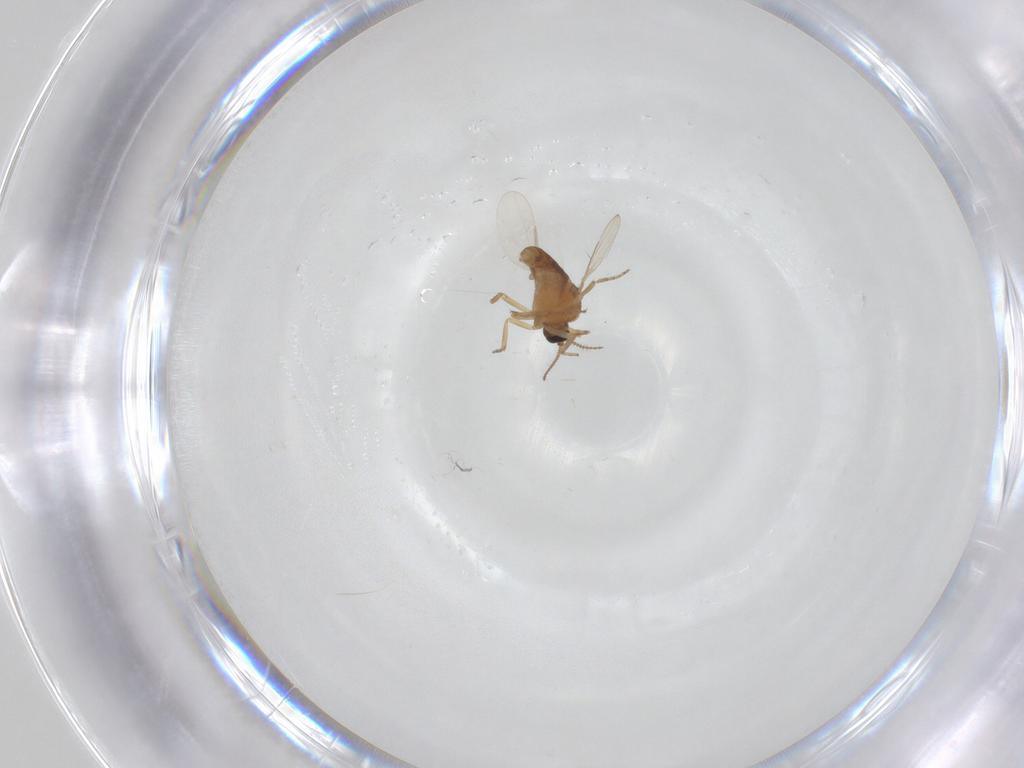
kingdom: Animalia
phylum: Arthropoda
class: Insecta
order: Diptera
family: Ceratopogonidae
